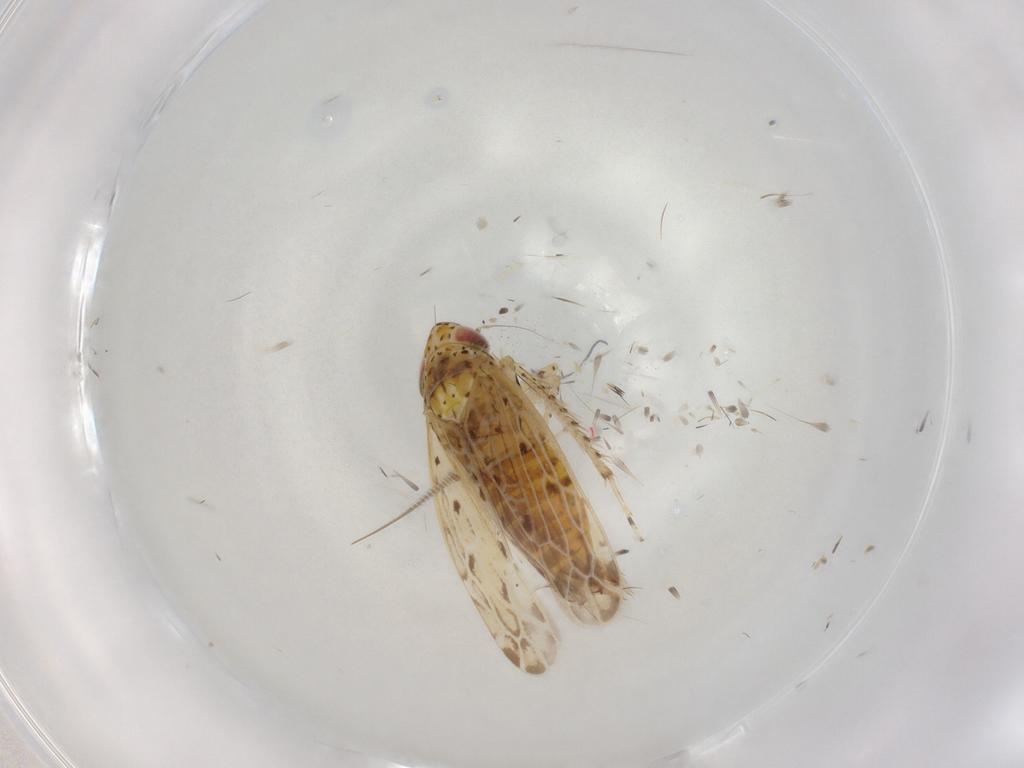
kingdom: Animalia
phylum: Arthropoda
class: Insecta
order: Hemiptera
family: Cicadellidae
